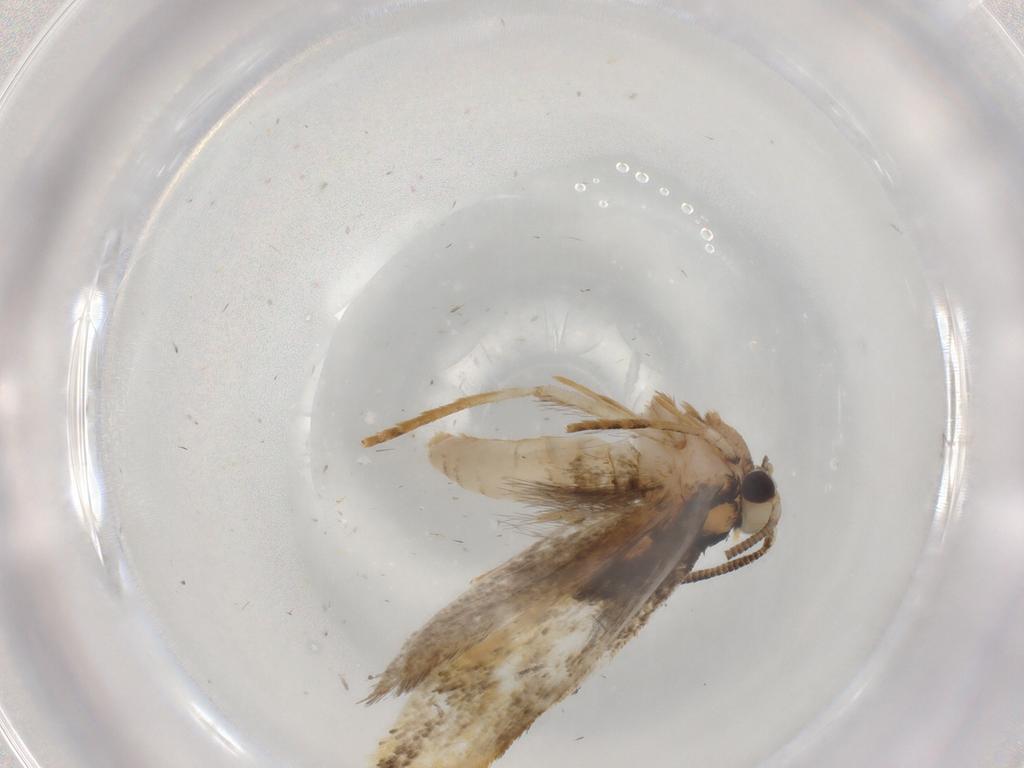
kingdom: Animalia
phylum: Arthropoda
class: Insecta
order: Lepidoptera
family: Tineidae
